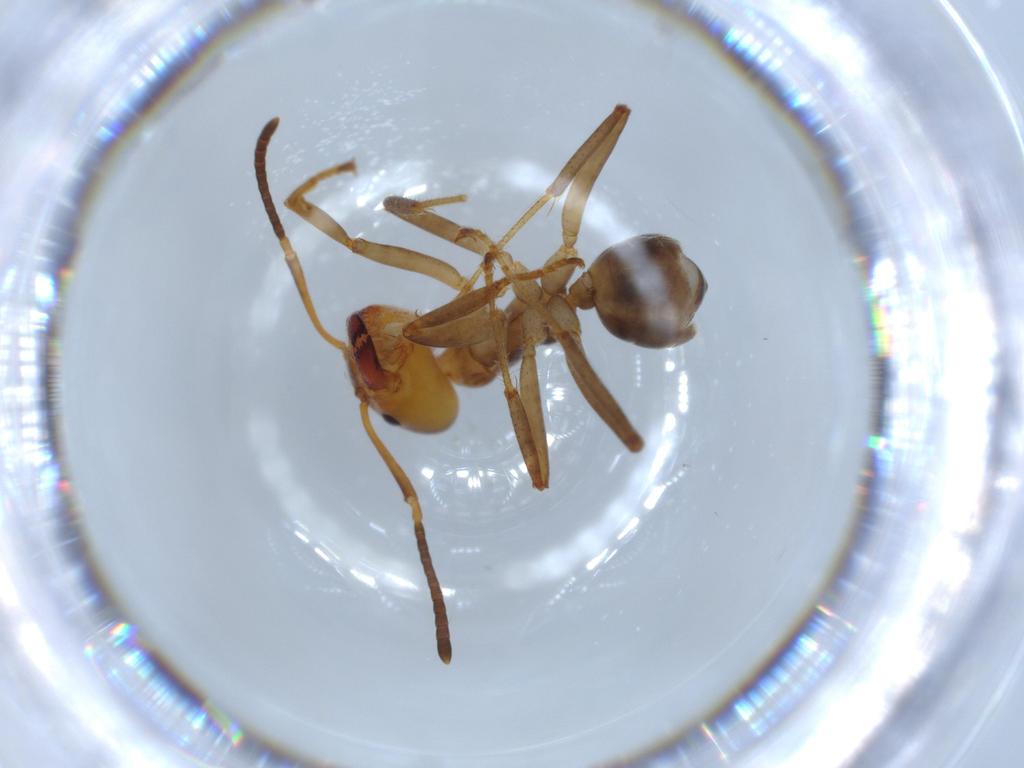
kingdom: Animalia
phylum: Arthropoda
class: Insecta
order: Hymenoptera
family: Formicidae
